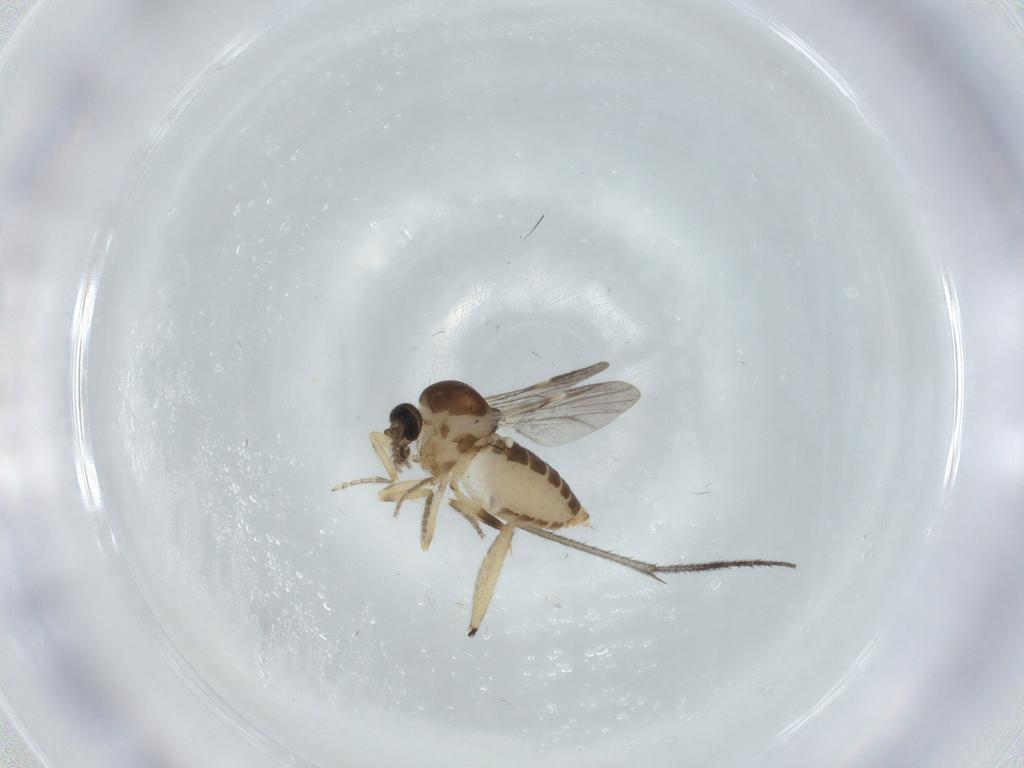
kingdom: Animalia
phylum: Arthropoda
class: Insecta
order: Diptera
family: Ceratopogonidae
